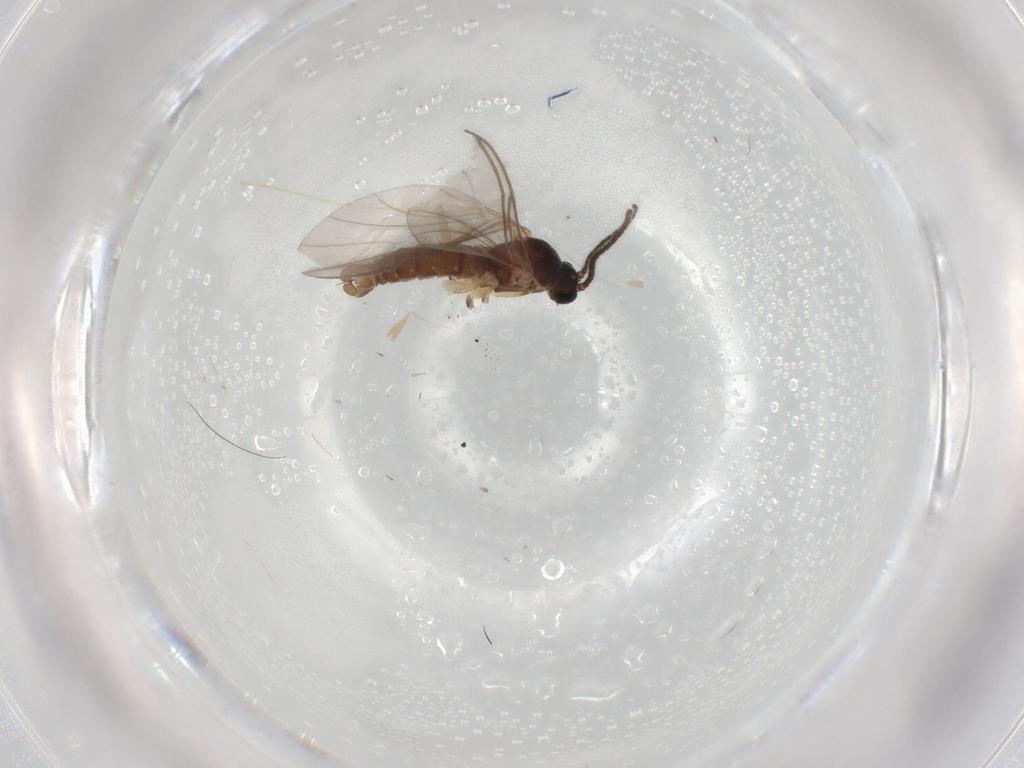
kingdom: Animalia
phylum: Arthropoda
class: Insecta
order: Diptera
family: Sciaridae
